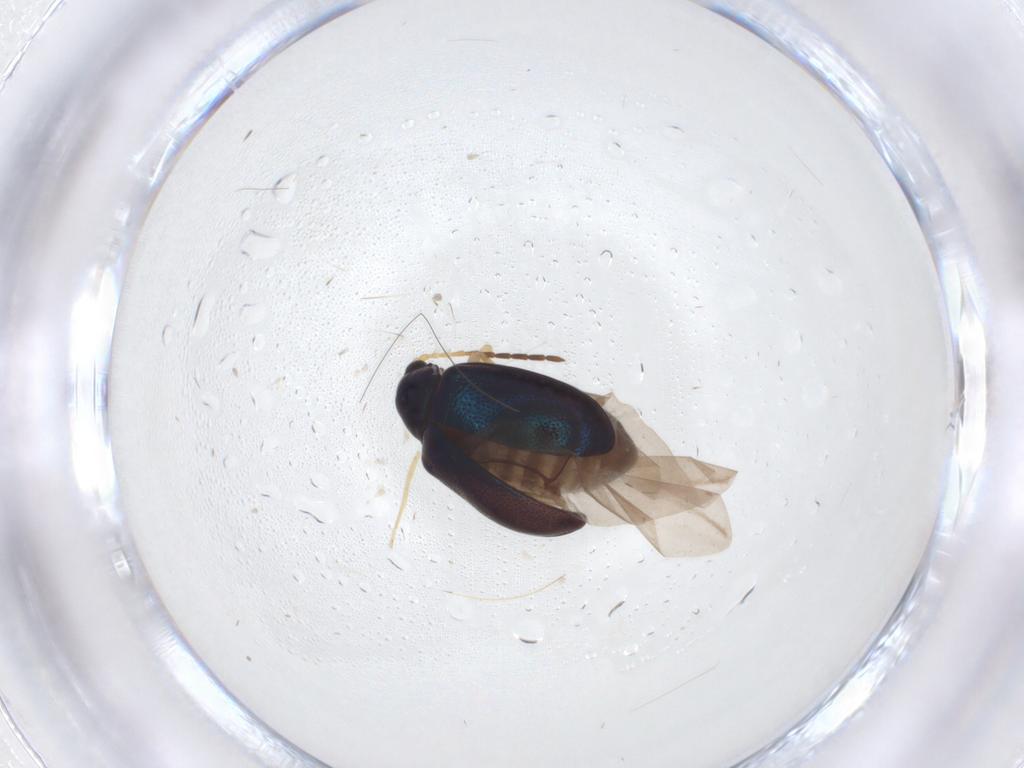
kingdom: Animalia
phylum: Arthropoda
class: Insecta
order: Coleoptera
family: Chrysomelidae
